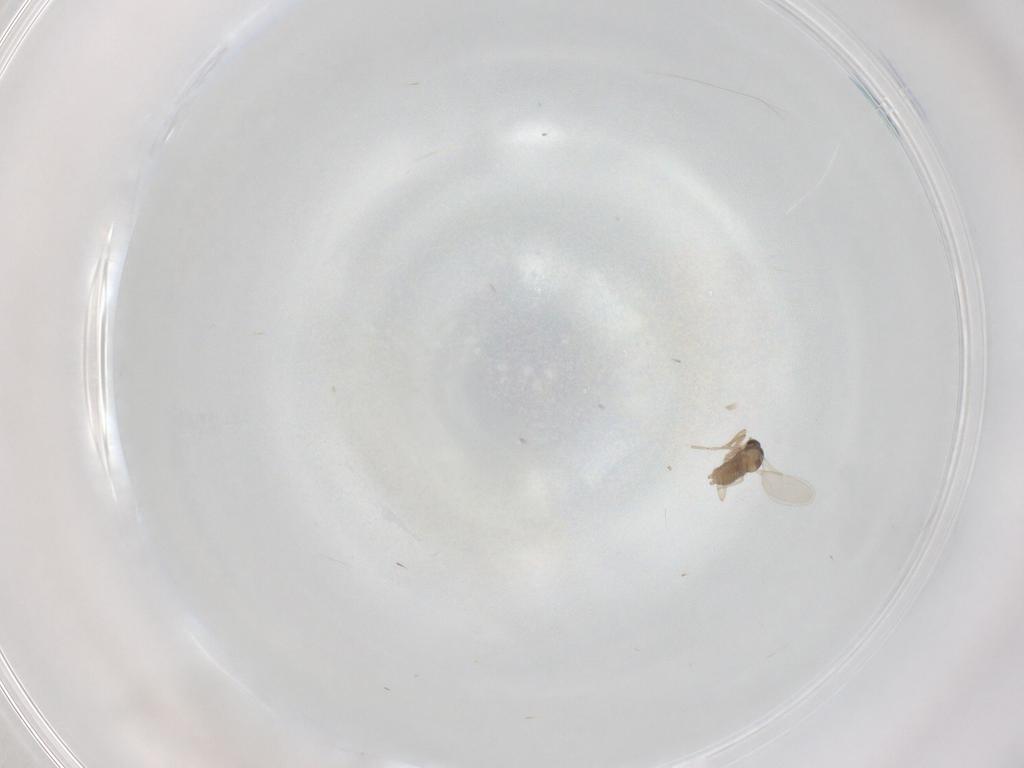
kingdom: Animalia
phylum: Arthropoda
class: Insecta
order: Diptera
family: Cecidomyiidae
